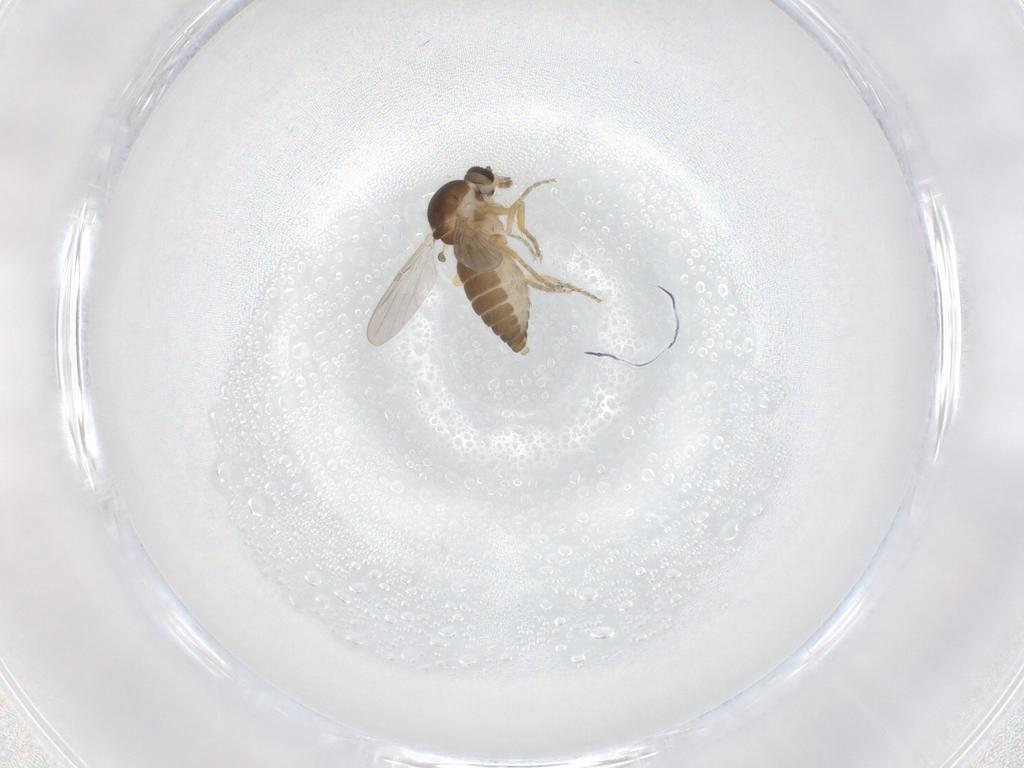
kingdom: Animalia
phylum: Arthropoda
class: Insecta
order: Diptera
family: Ceratopogonidae
